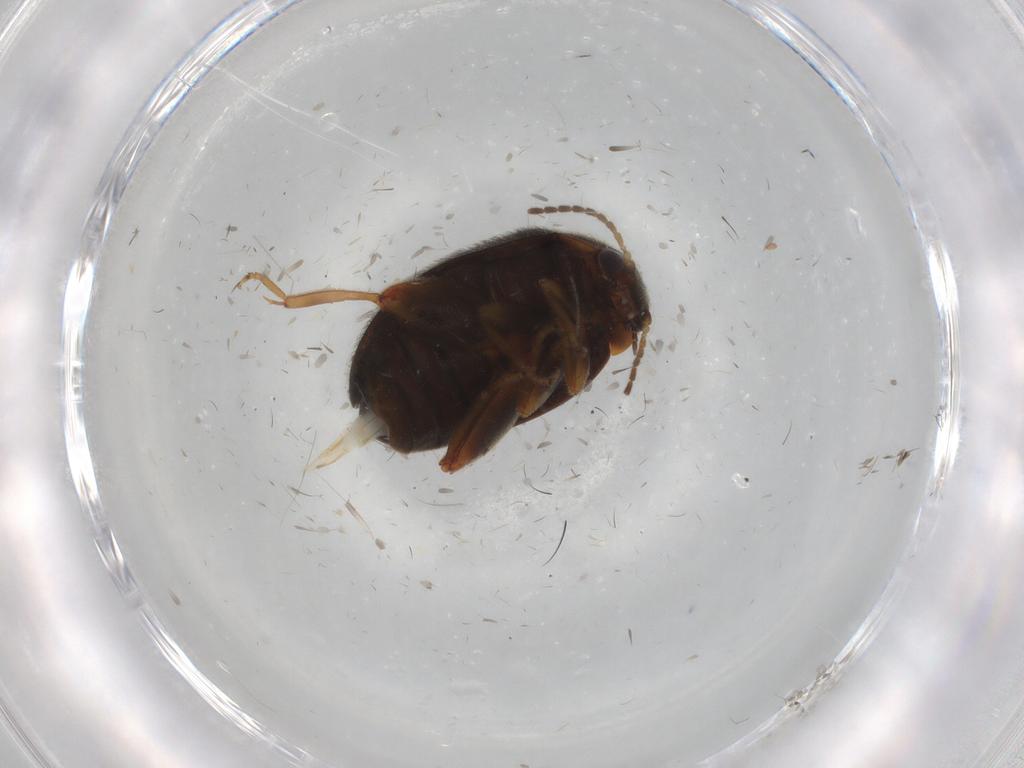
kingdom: Animalia
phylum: Arthropoda
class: Insecta
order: Coleoptera
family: Scirtidae
